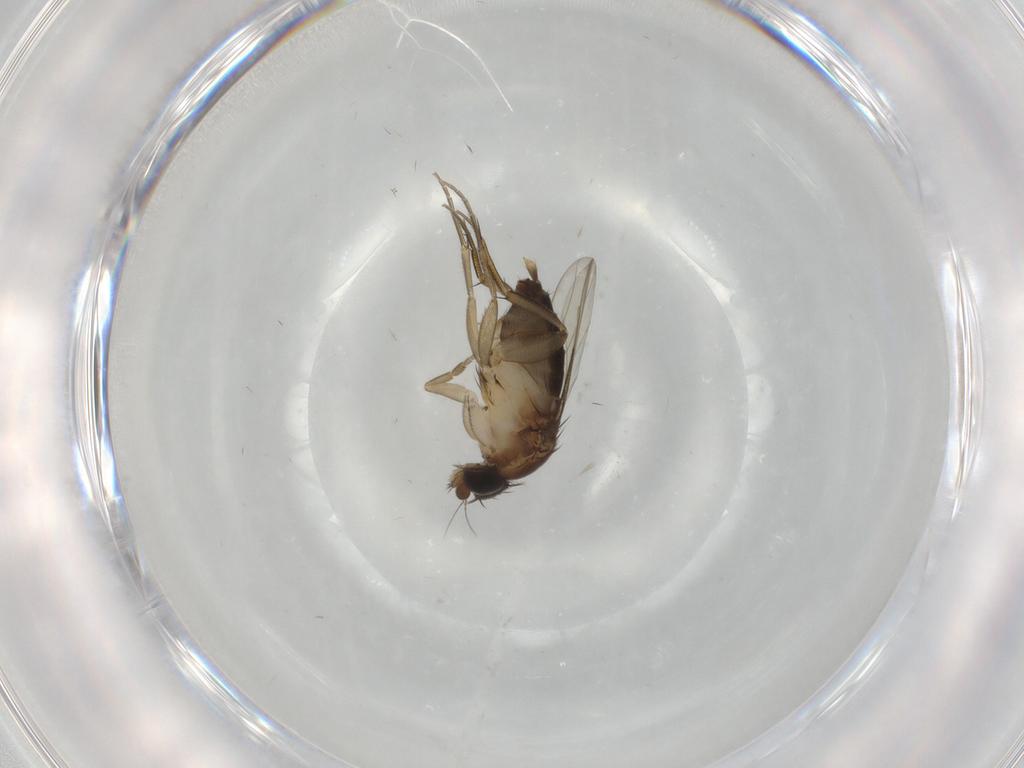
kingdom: Animalia
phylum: Arthropoda
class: Insecta
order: Diptera
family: Phoridae
